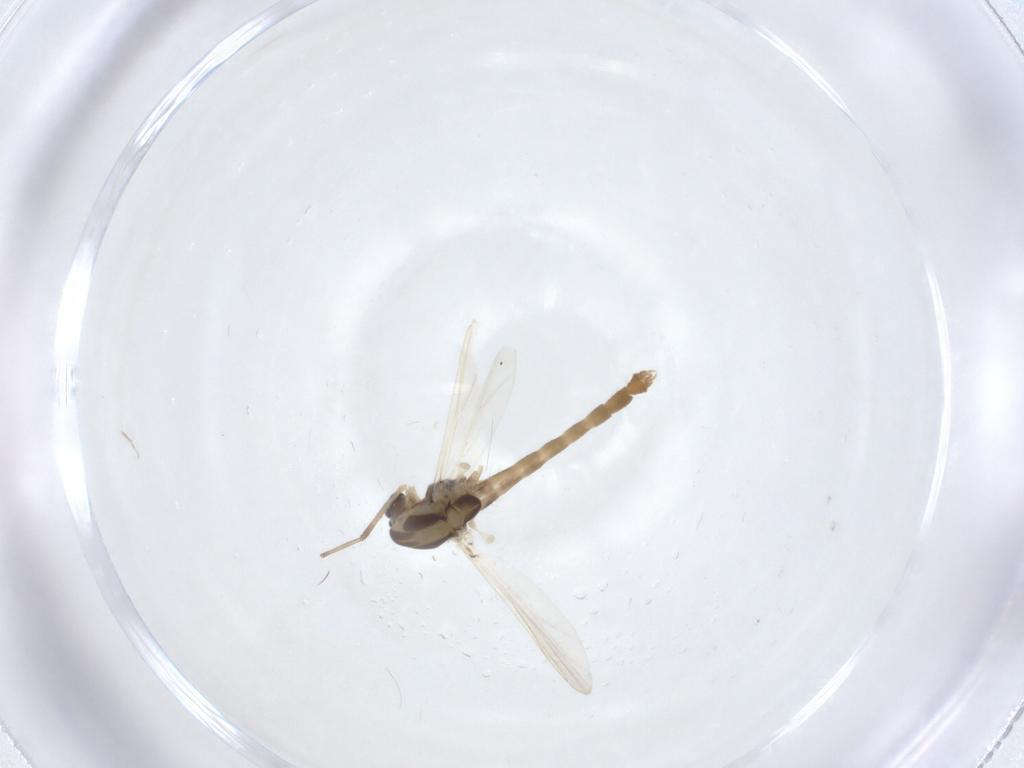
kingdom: Animalia
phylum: Arthropoda
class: Insecta
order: Diptera
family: Chironomidae
